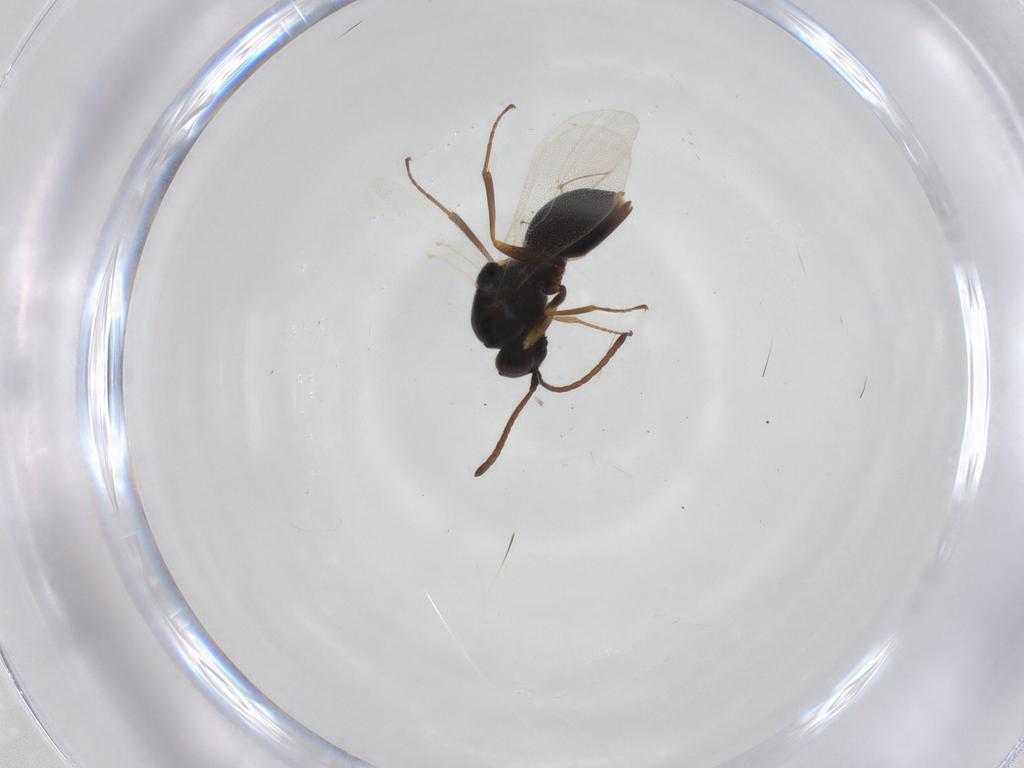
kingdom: Animalia
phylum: Arthropoda
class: Insecta
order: Hymenoptera
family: Figitidae
